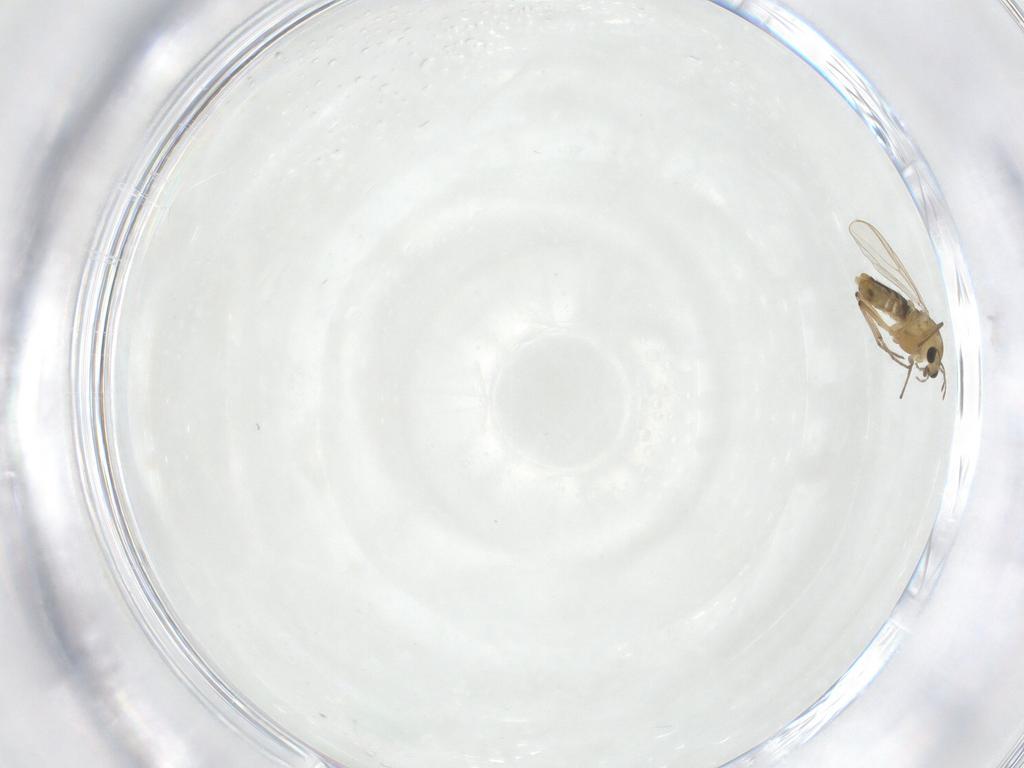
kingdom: Animalia
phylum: Arthropoda
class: Insecta
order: Diptera
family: Chironomidae
